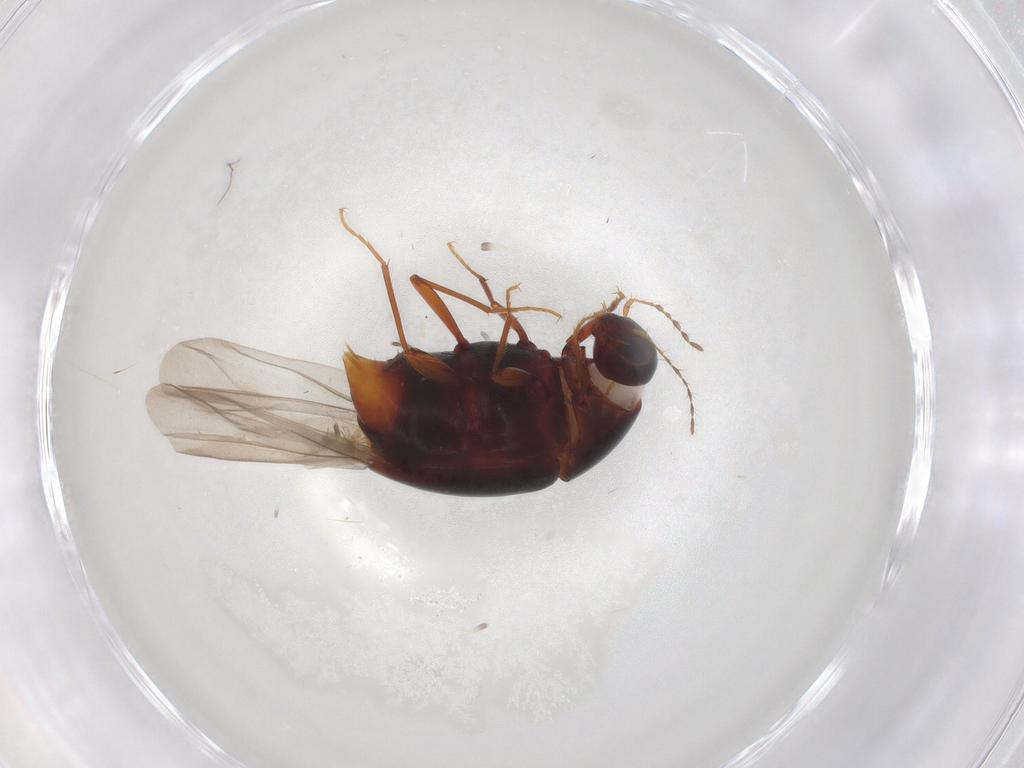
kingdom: Animalia
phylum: Arthropoda
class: Insecta
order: Coleoptera
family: Staphylinidae
